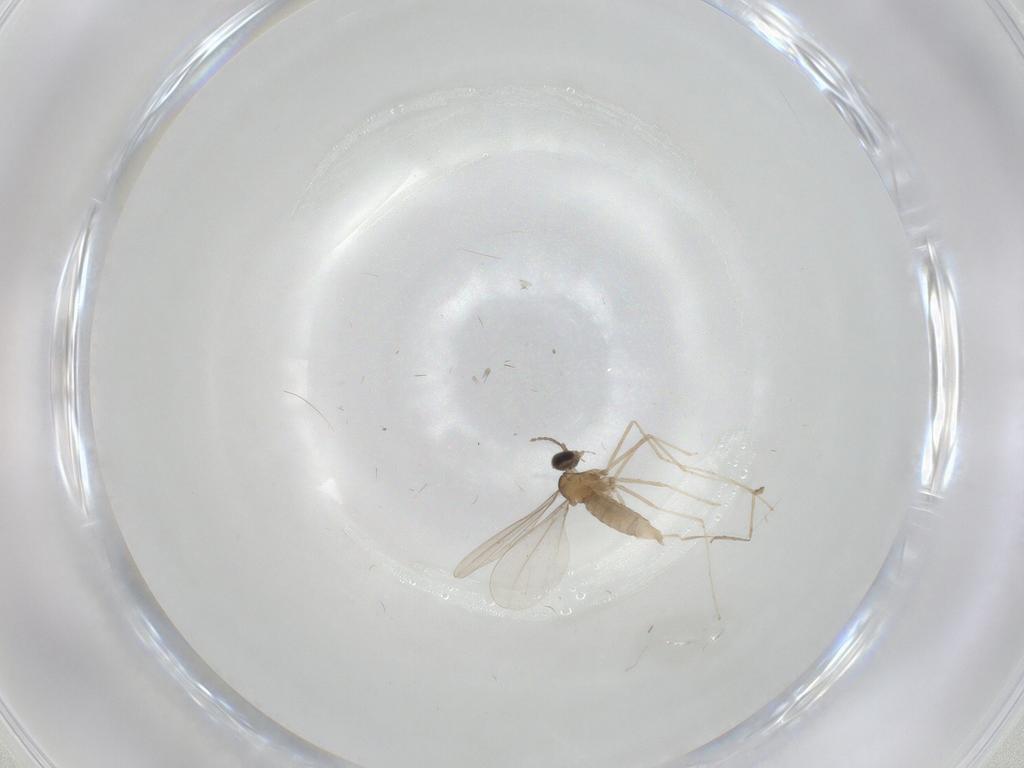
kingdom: Animalia
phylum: Arthropoda
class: Insecta
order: Diptera
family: Cecidomyiidae
